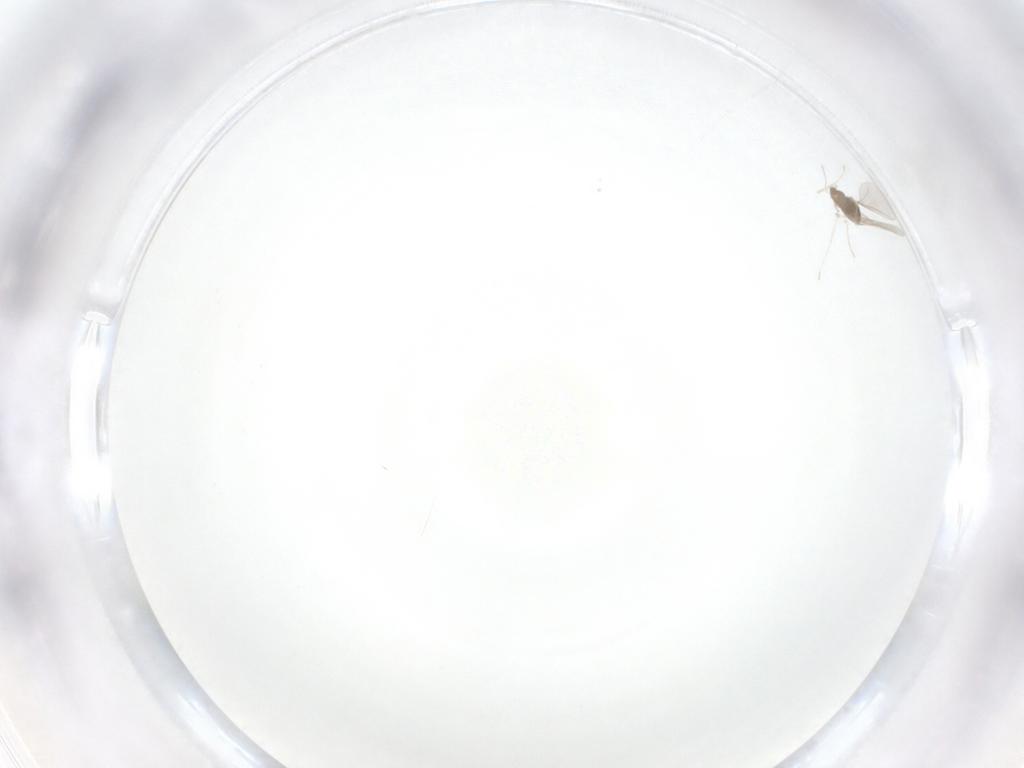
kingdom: Animalia
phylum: Arthropoda
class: Insecta
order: Diptera
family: Cecidomyiidae
